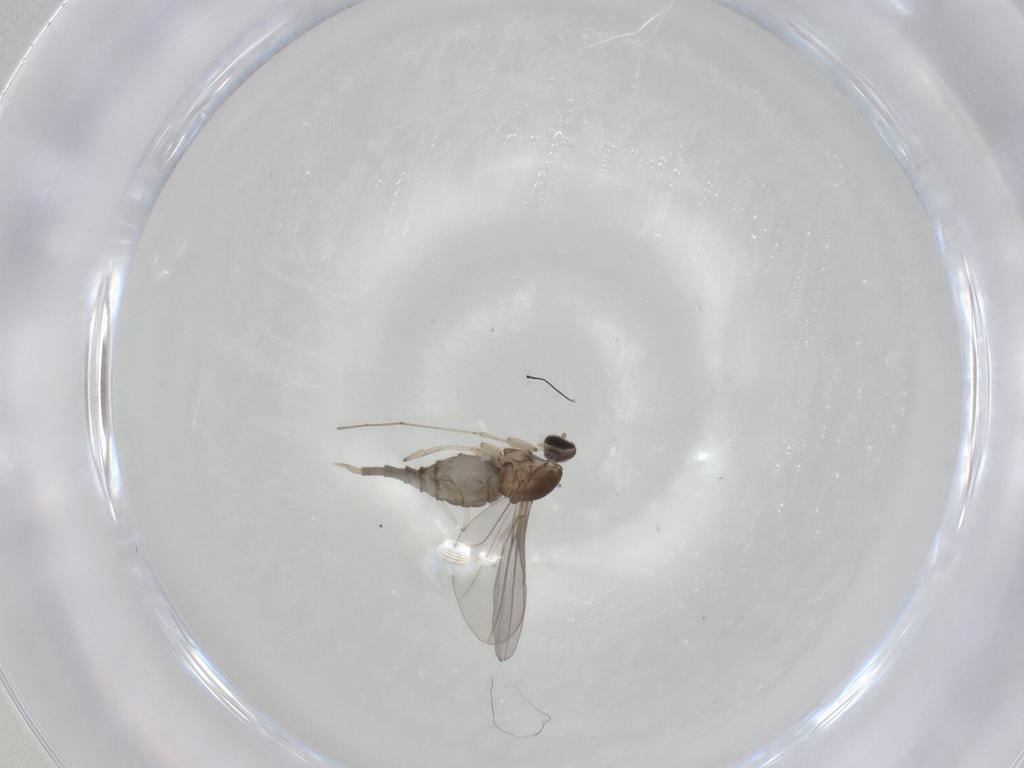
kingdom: Animalia
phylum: Arthropoda
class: Insecta
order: Diptera
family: Cecidomyiidae
